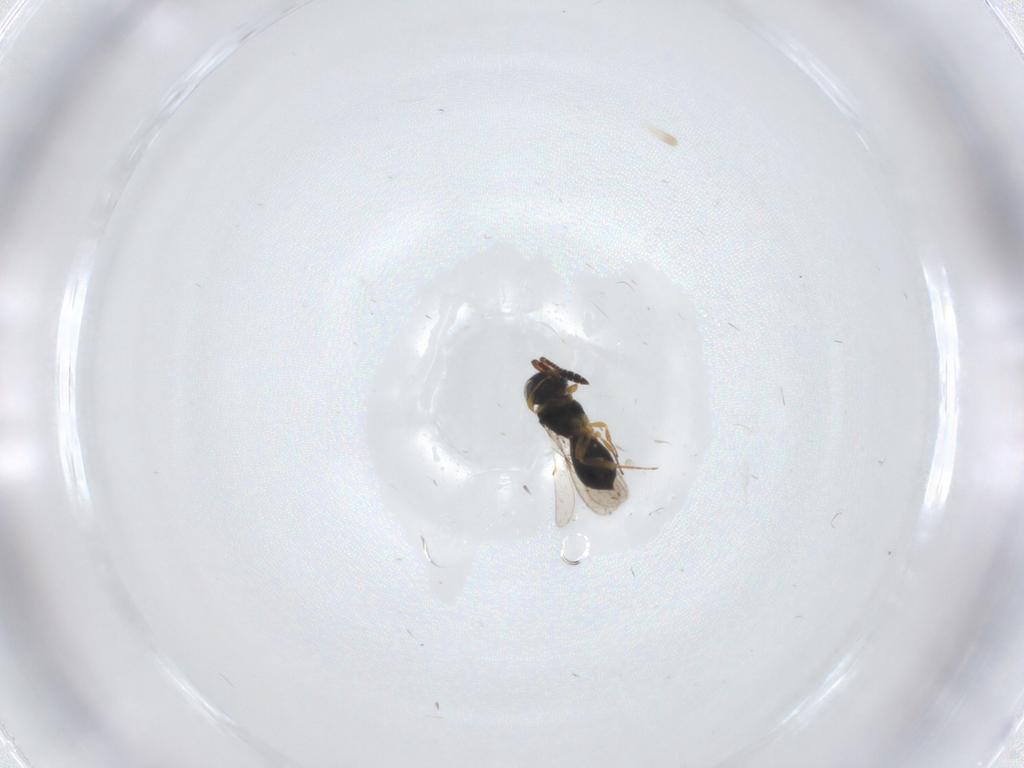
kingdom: Animalia
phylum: Arthropoda
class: Insecta
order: Hymenoptera
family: Scelionidae
